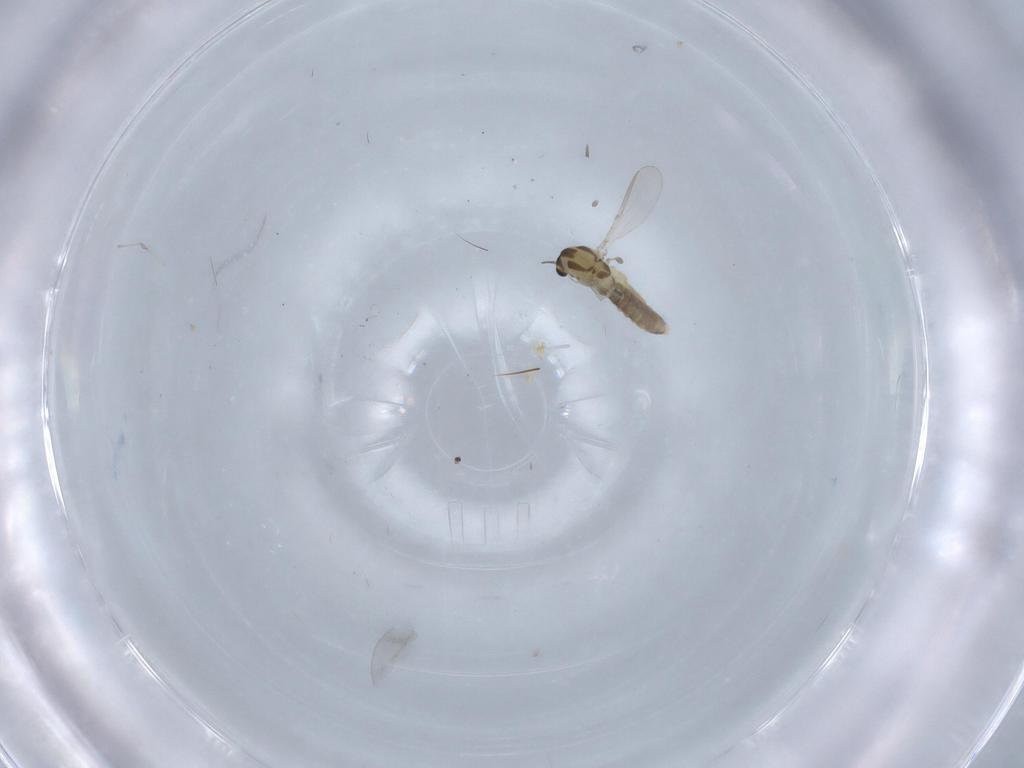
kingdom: Animalia
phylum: Arthropoda
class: Insecta
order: Diptera
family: Chironomidae
